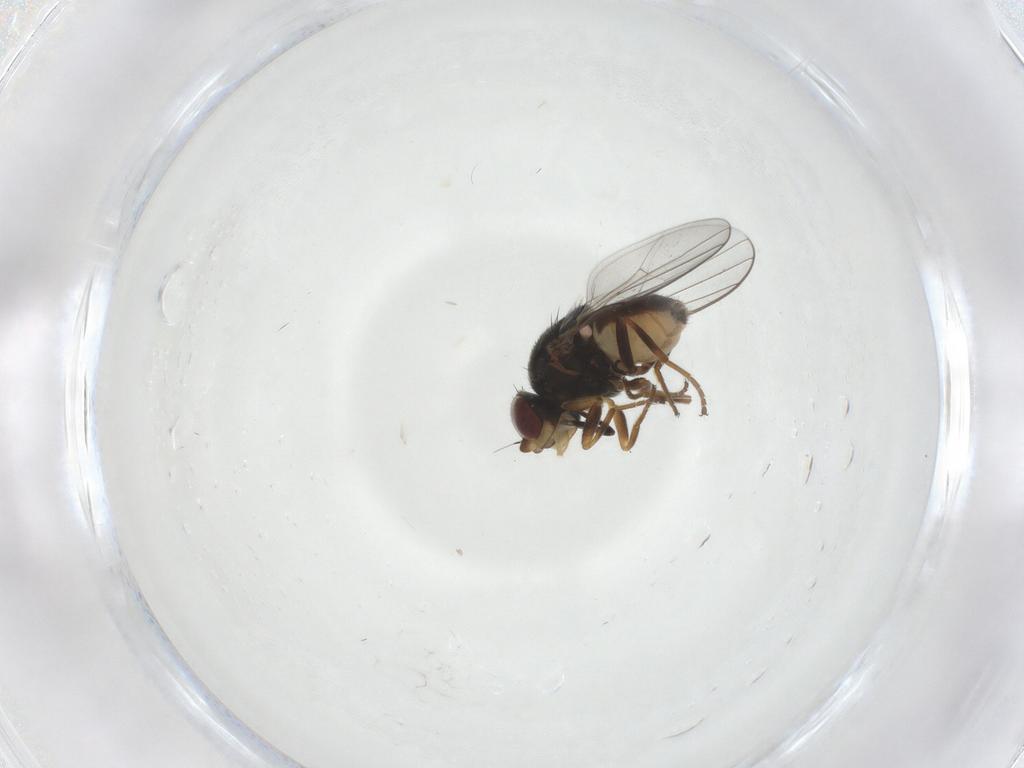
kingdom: Animalia
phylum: Arthropoda
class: Insecta
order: Diptera
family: Chloropidae
